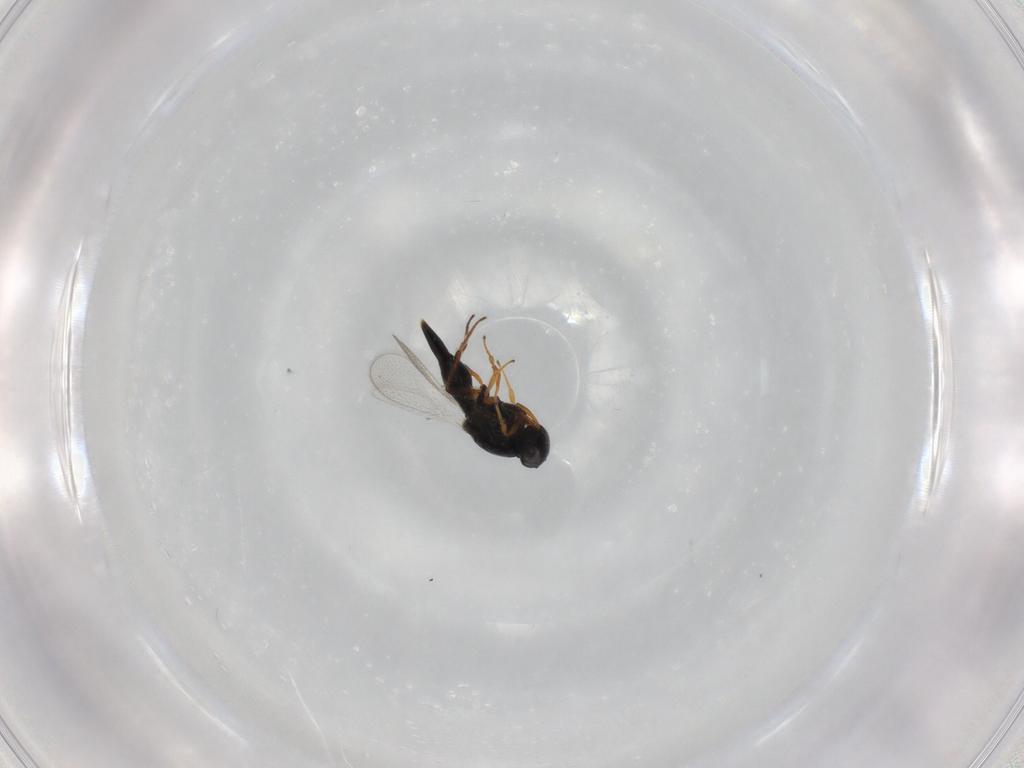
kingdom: Animalia
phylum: Arthropoda
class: Insecta
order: Hymenoptera
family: Platygastridae
